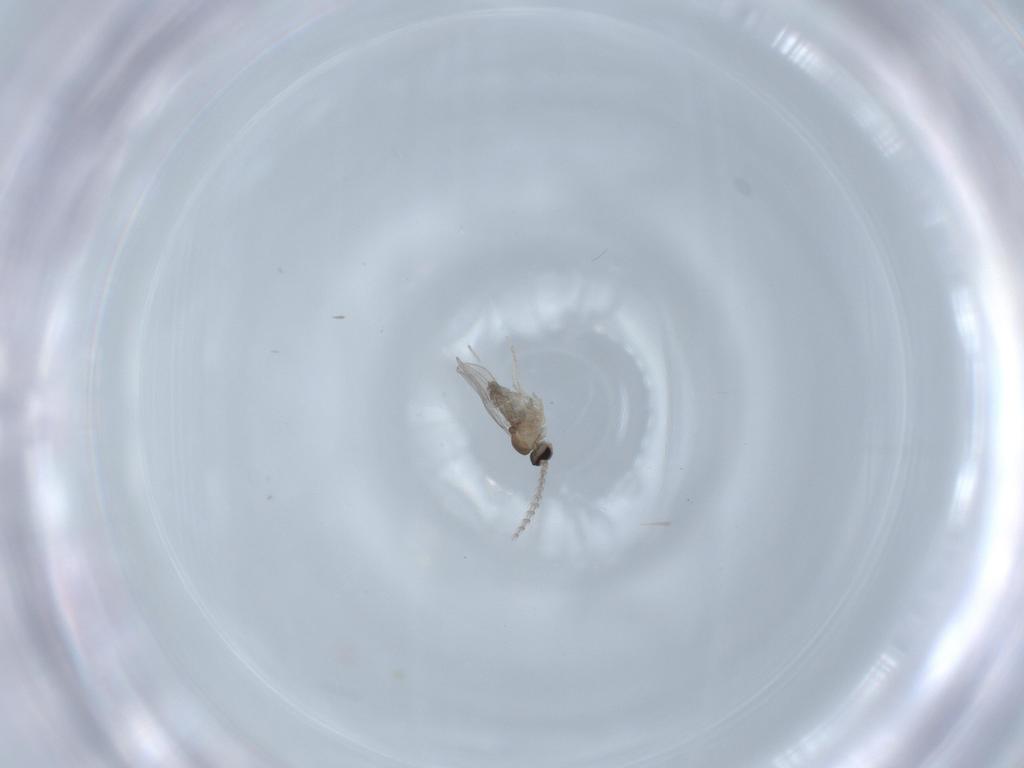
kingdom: Animalia
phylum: Arthropoda
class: Insecta
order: Diptera
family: Cecidomyiidae
